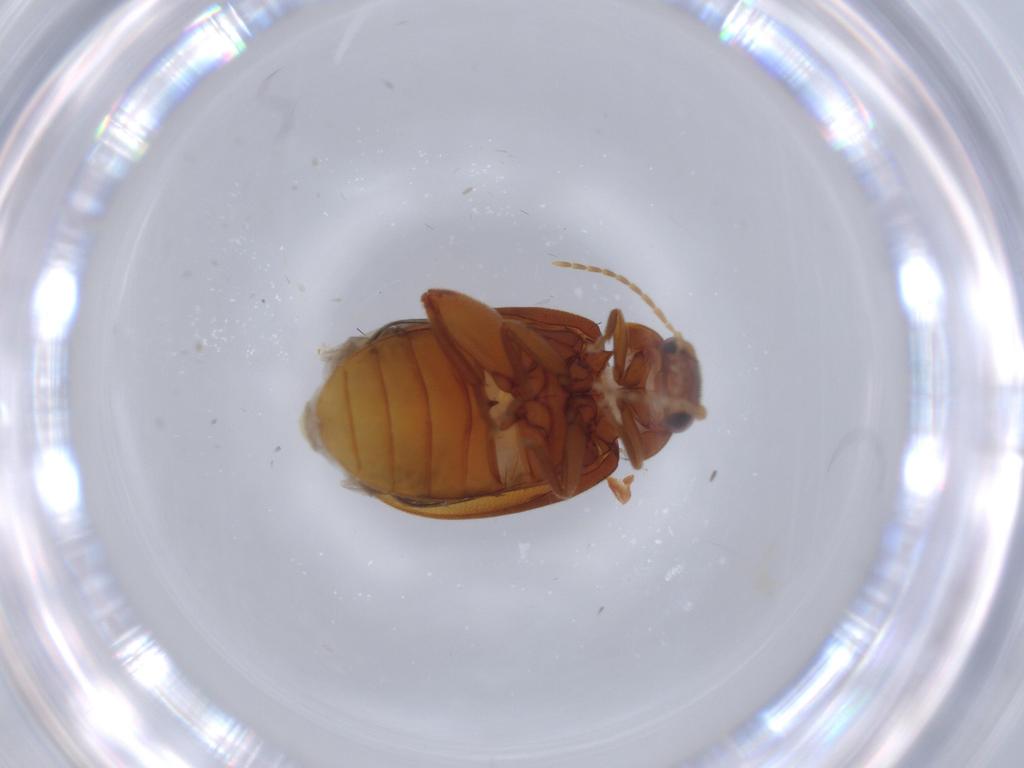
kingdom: Animalia
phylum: Arthropoda
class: Insecta
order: Coleoptera
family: Scirtidae
